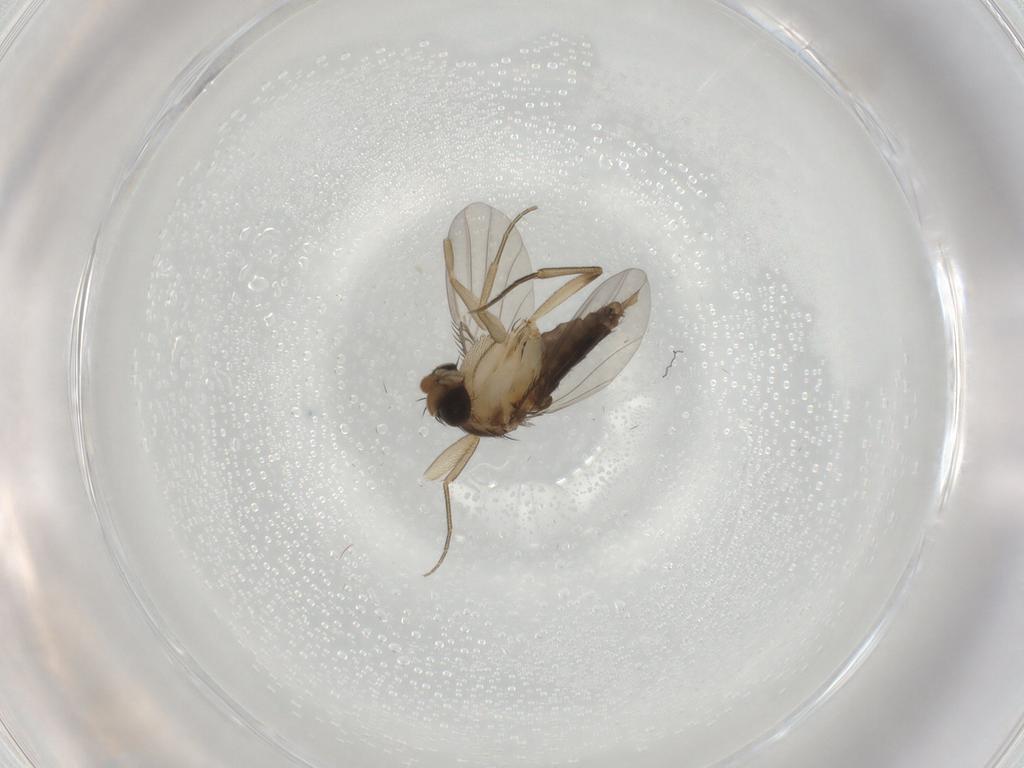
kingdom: Animalia
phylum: Arthropoda
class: Insecta
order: Diptera
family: Phoridae
